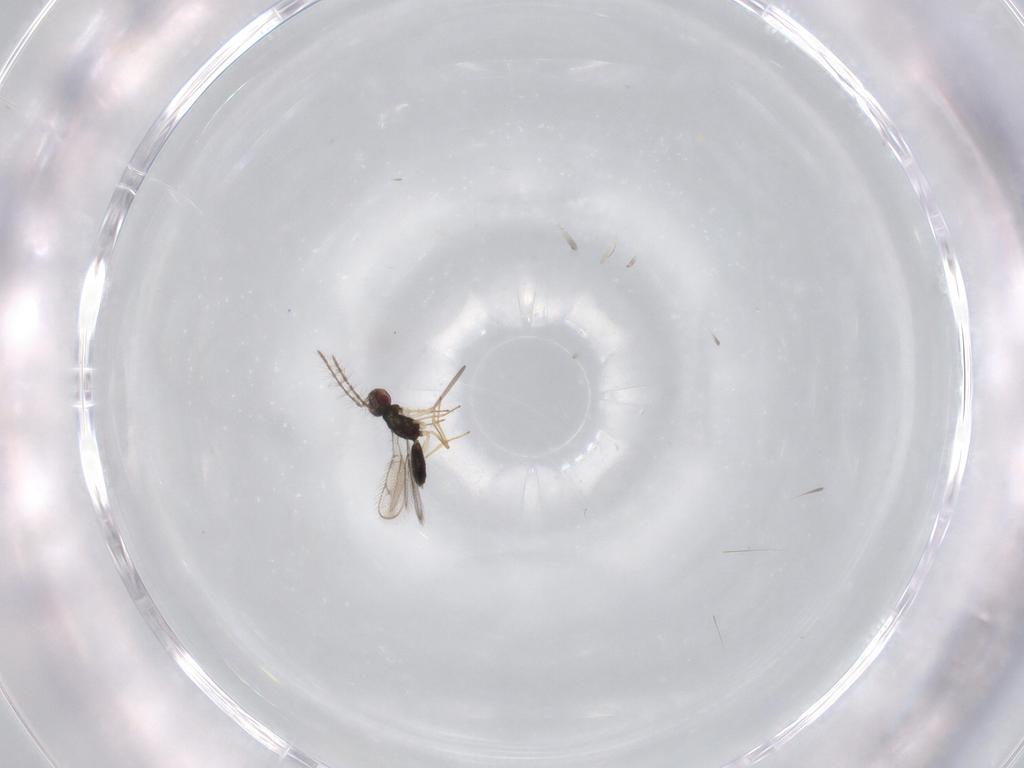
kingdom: Animalia
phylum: Arthropoda
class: Insecta
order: Hymenoptera
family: Pteromalidae
